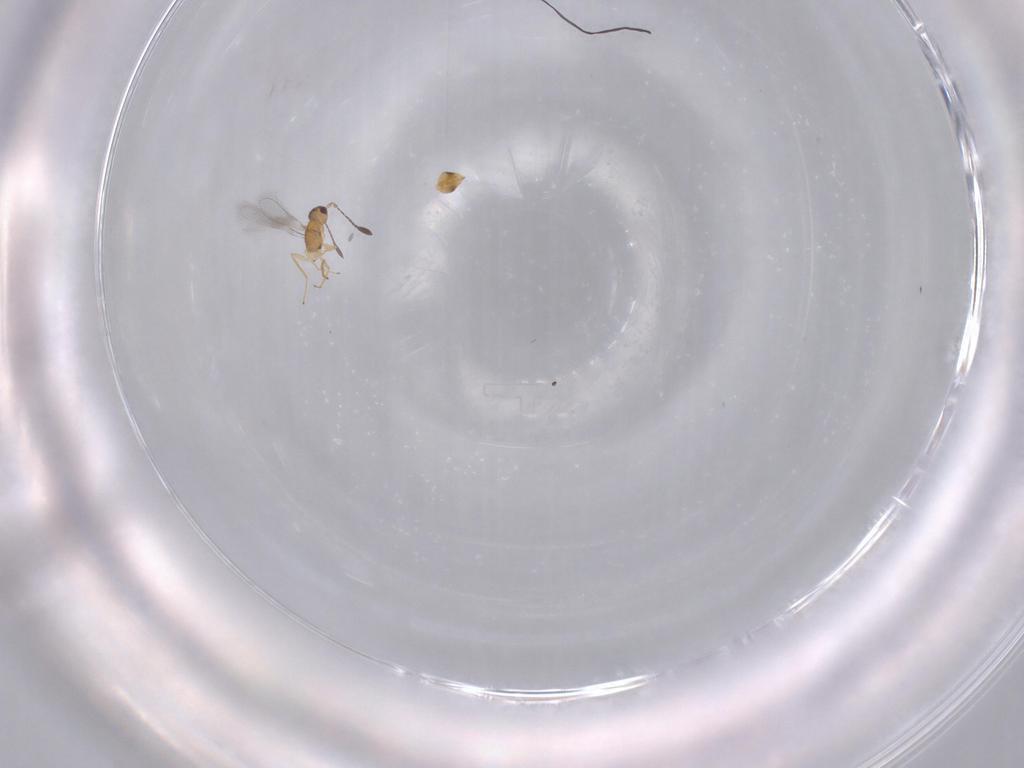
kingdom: Animalia
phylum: Arthropoda
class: Insecta
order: Hymenoptera
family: Mymaridae
